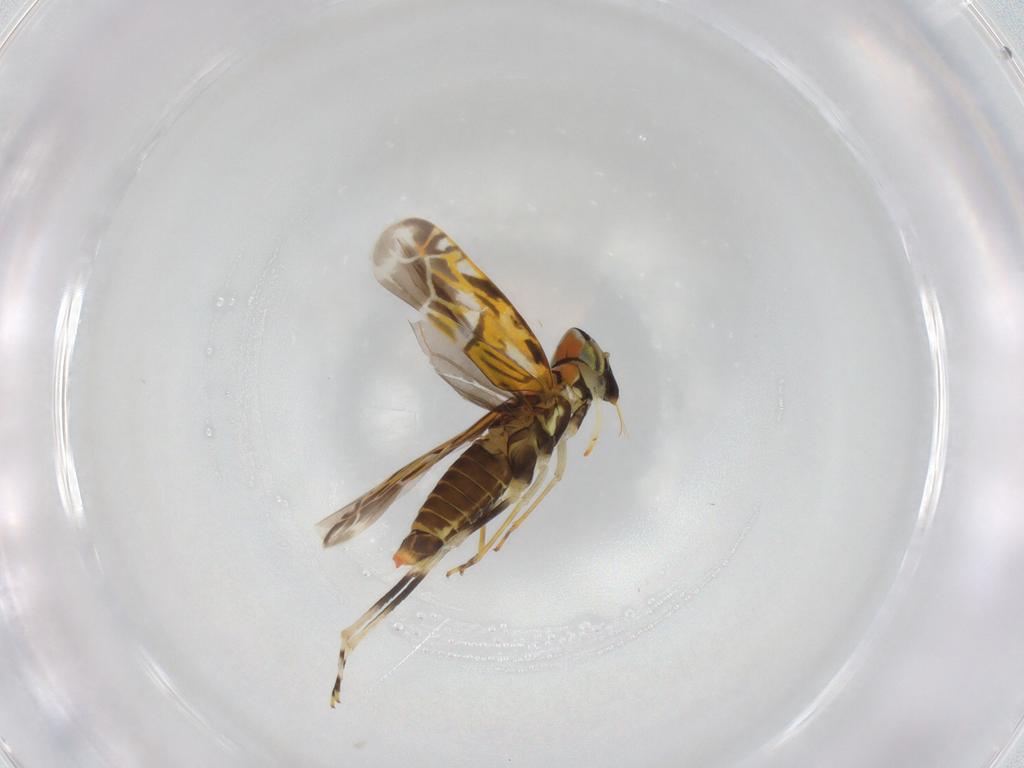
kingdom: Animalia
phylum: Arthropoda
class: Insecta
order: Hemiptera
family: Cicadellidae
